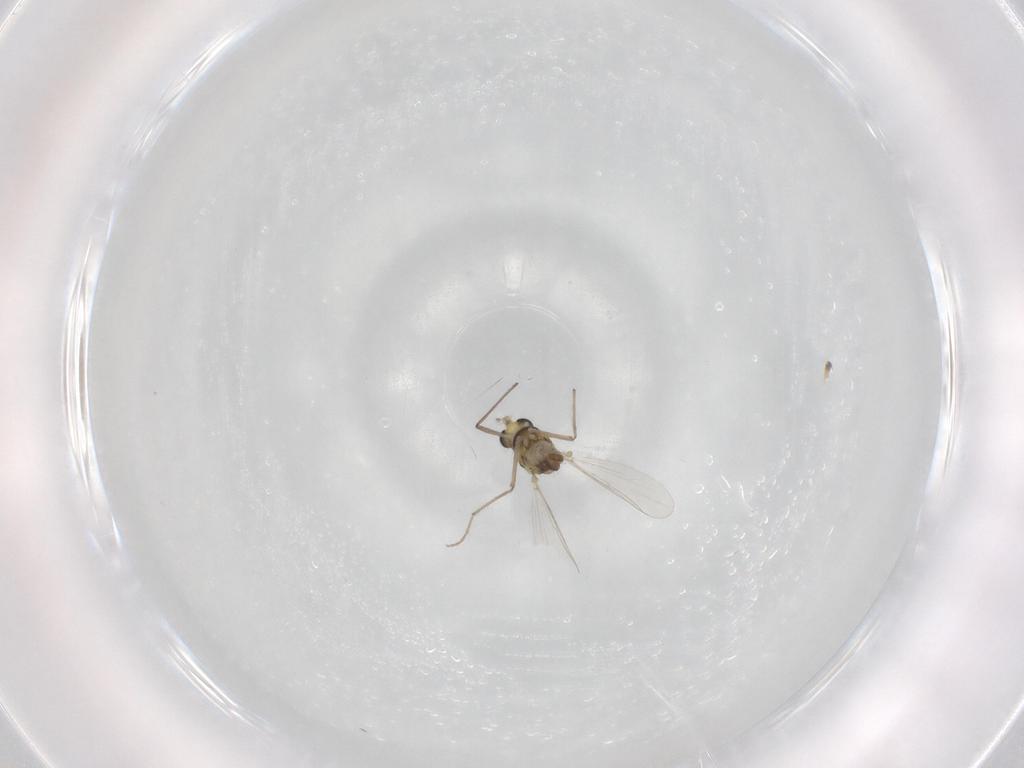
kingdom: Animalia
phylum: Arthropoda
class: Insecta
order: Diptera
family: Chironomidae
